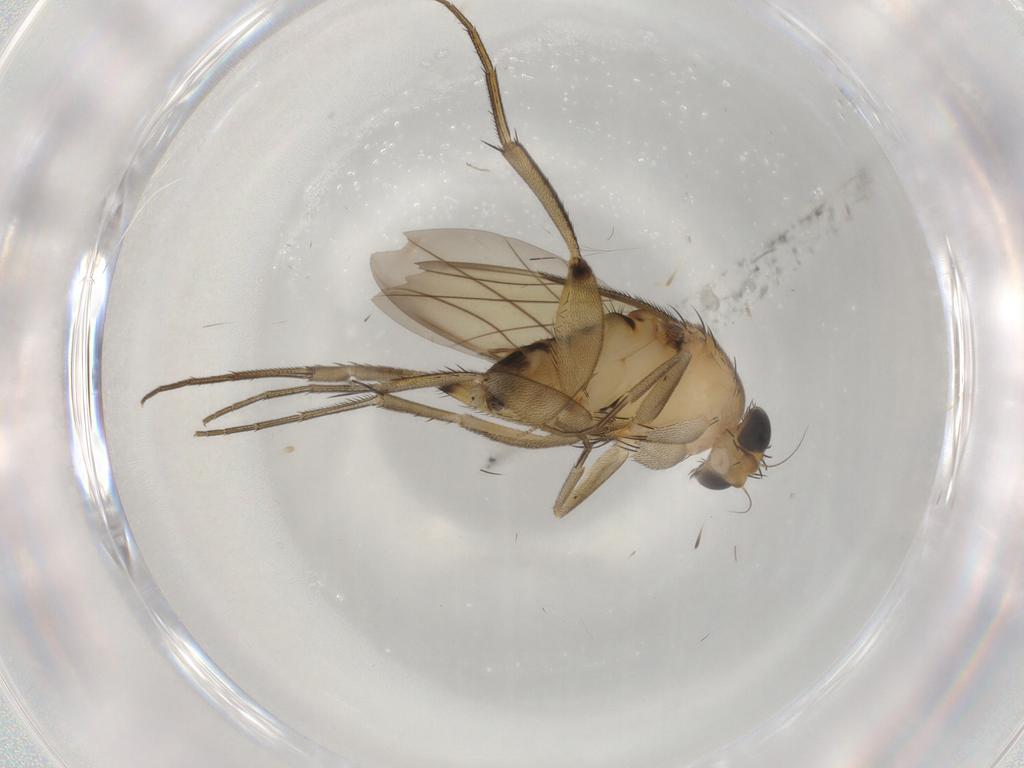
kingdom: Animalia
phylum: Arthropoda
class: Insecta
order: Diptera
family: Phoridae
